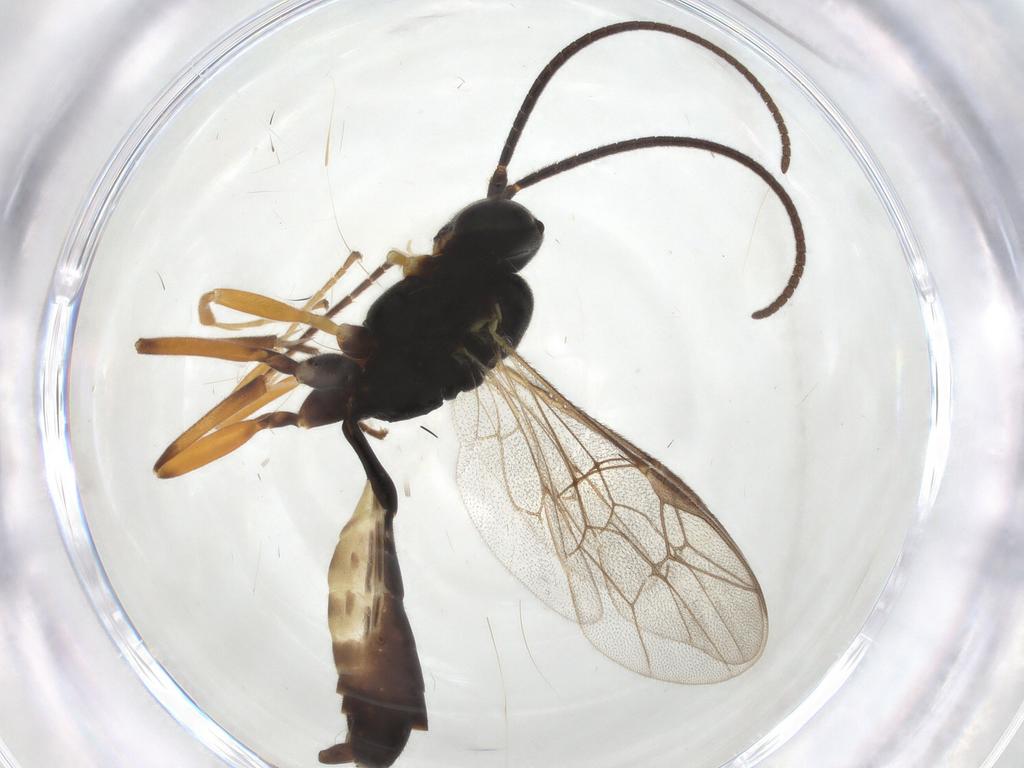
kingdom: Animalia
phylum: Arthropoda
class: Insecta
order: Hymenoptera
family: Ichneumonidae
